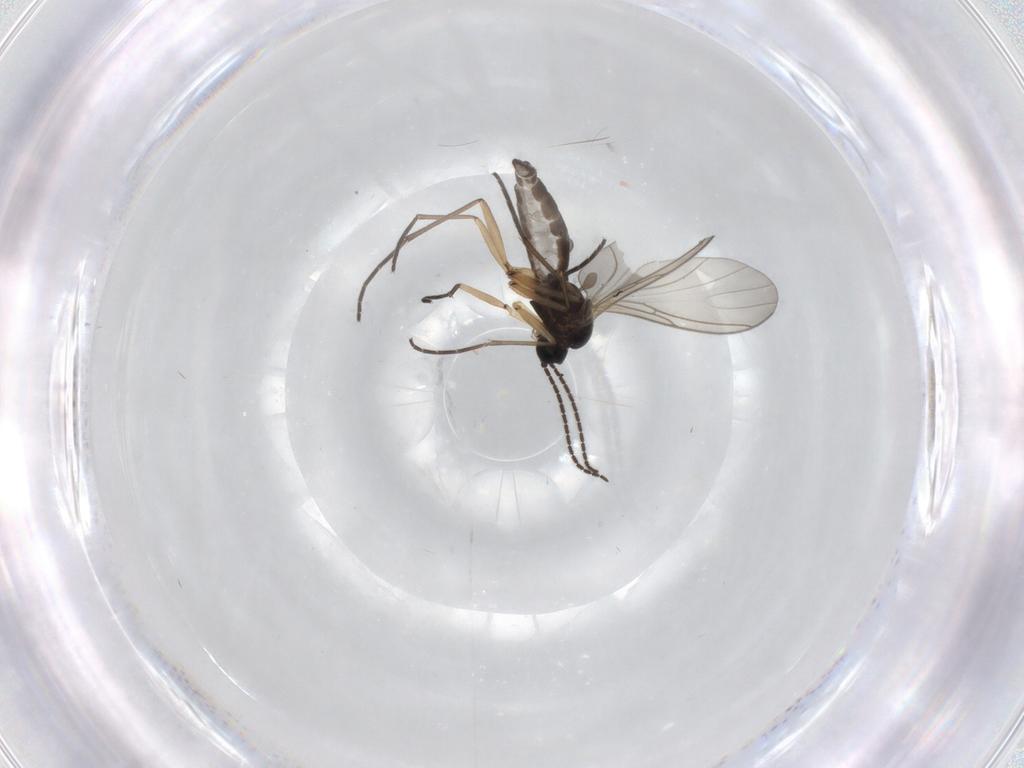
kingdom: Animalia
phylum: Arthropoda
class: Insecta
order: Diptera
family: Sciaridae
